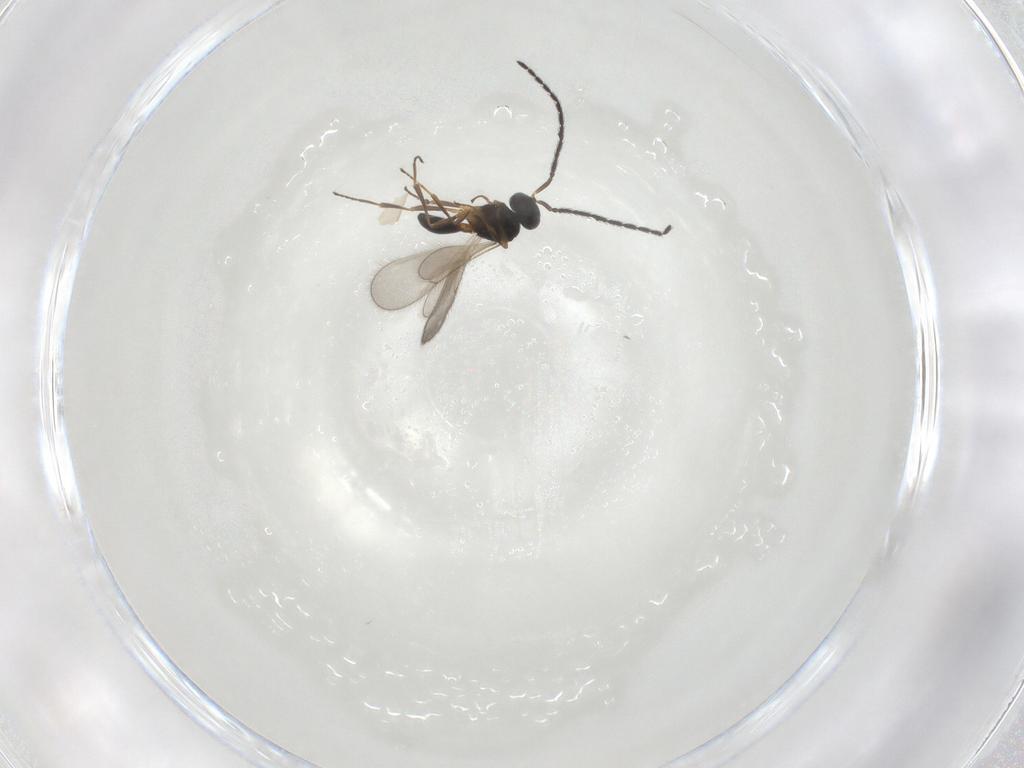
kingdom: Animalia
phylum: Arthropoda
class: Insecta
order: Hymenoptera
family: Scelionidae
